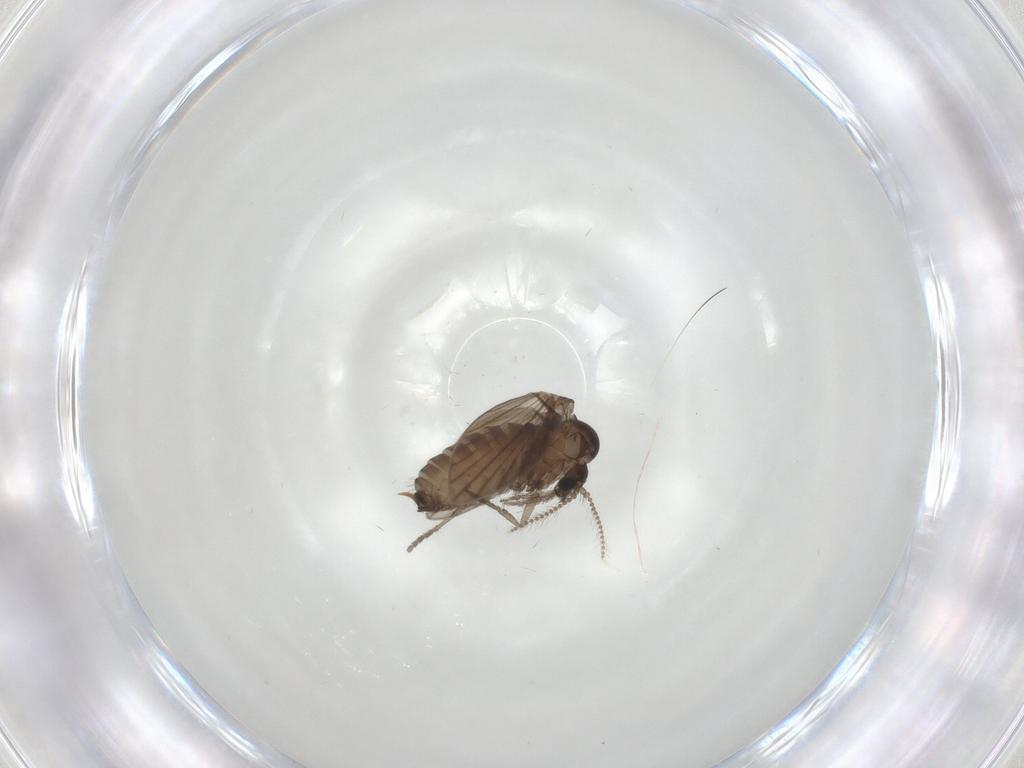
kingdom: Animalia
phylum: Arthropoda
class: Insecta
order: Diptera
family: Psychodidae
